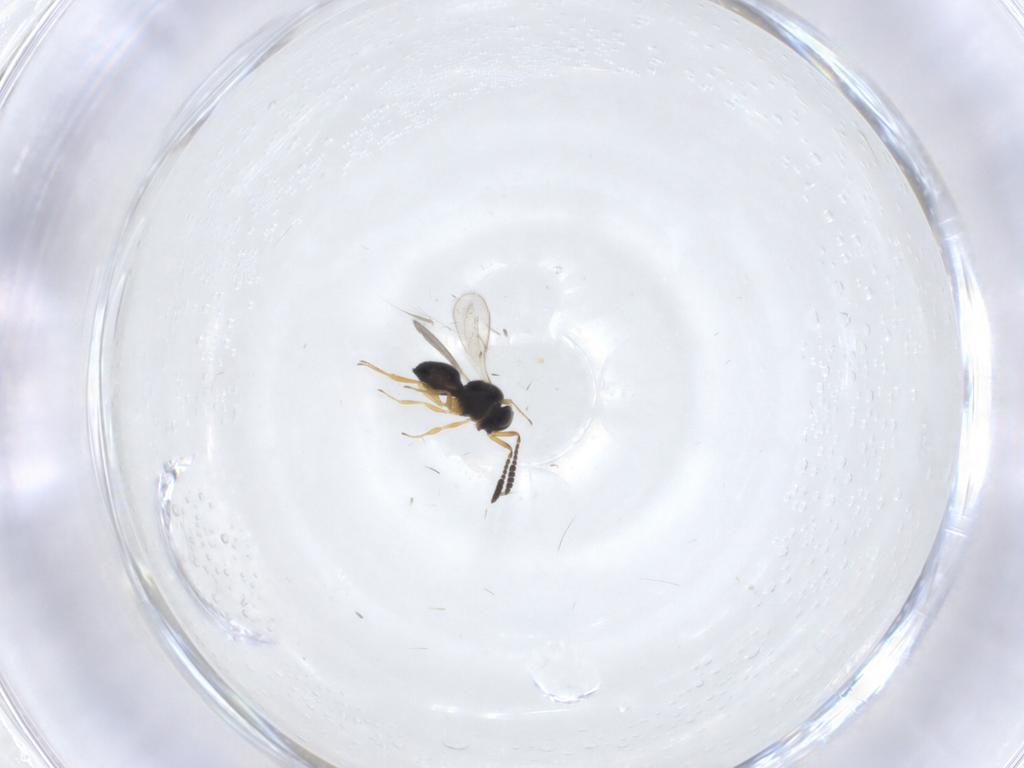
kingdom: Animalia
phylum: Arthropoda
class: Insecta
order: Hymenoptera
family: Scelionidae
